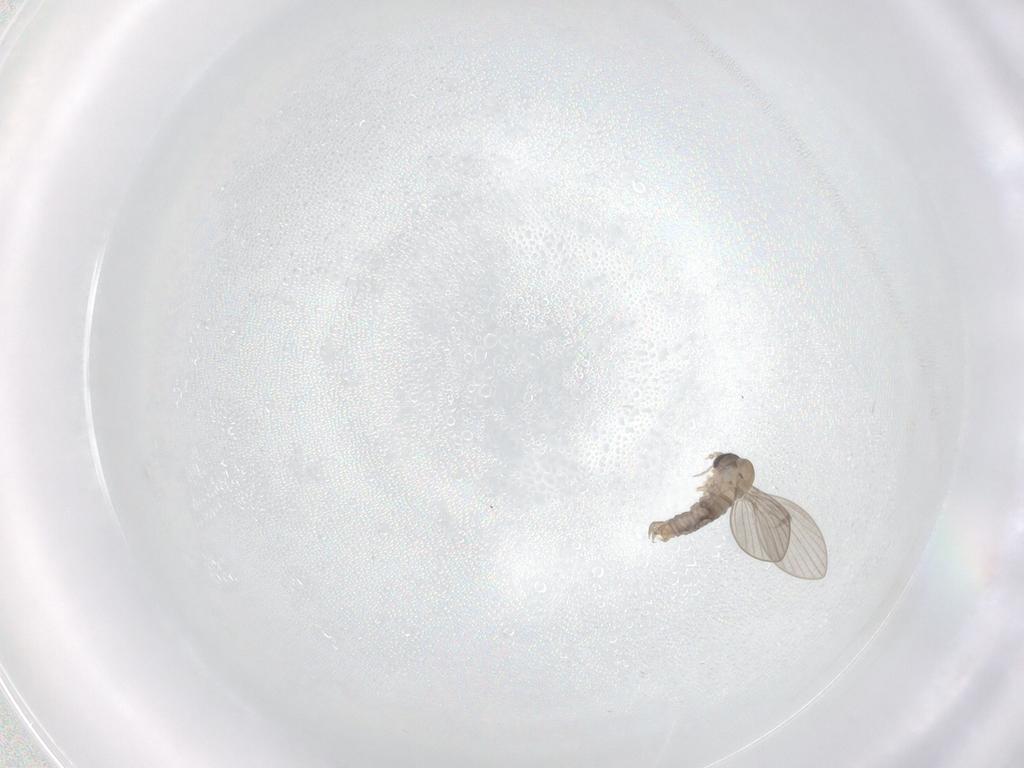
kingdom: Animalia
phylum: Arthropoda
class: Insecta
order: Diptera
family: Psychodidae
